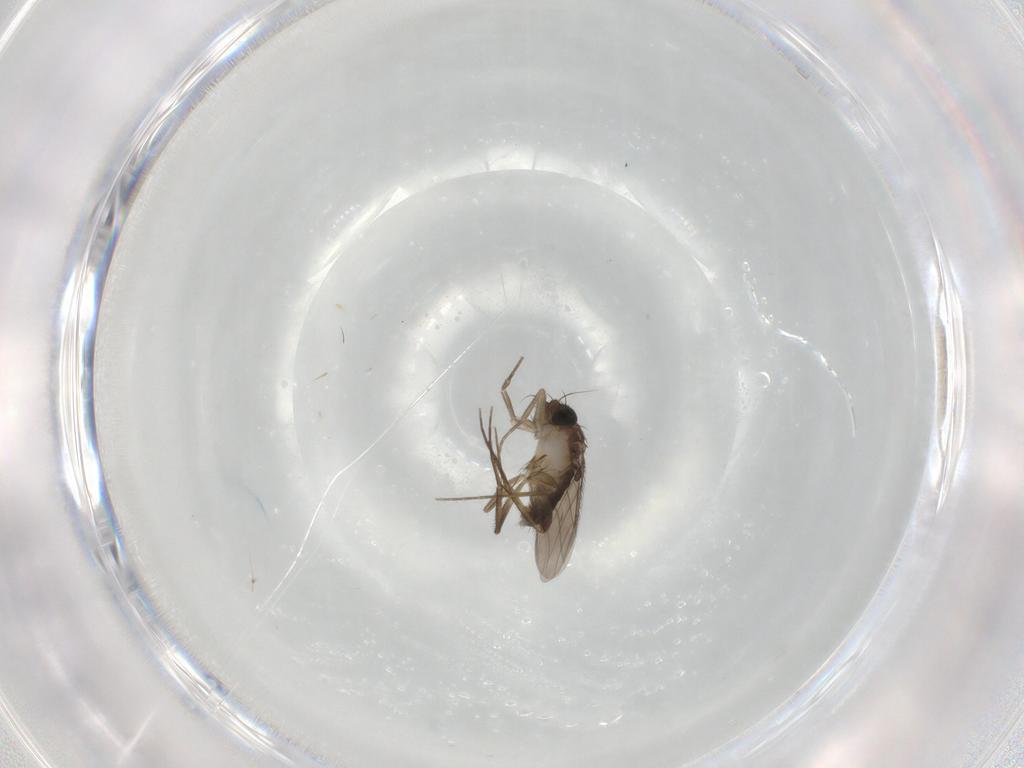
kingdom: Animalia
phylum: Arthropoda
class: Insecta
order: Diptera
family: Phoridae
